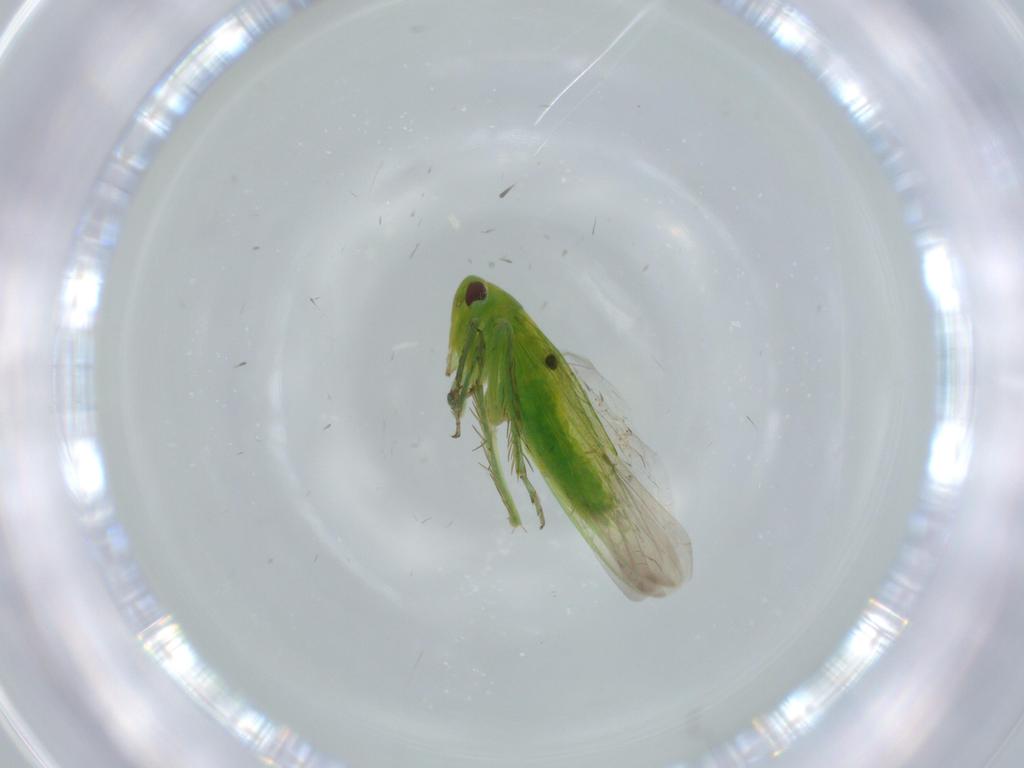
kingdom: Animalia
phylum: Arthropoda
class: Insecta
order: Hemiptera
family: Cicadellidae
